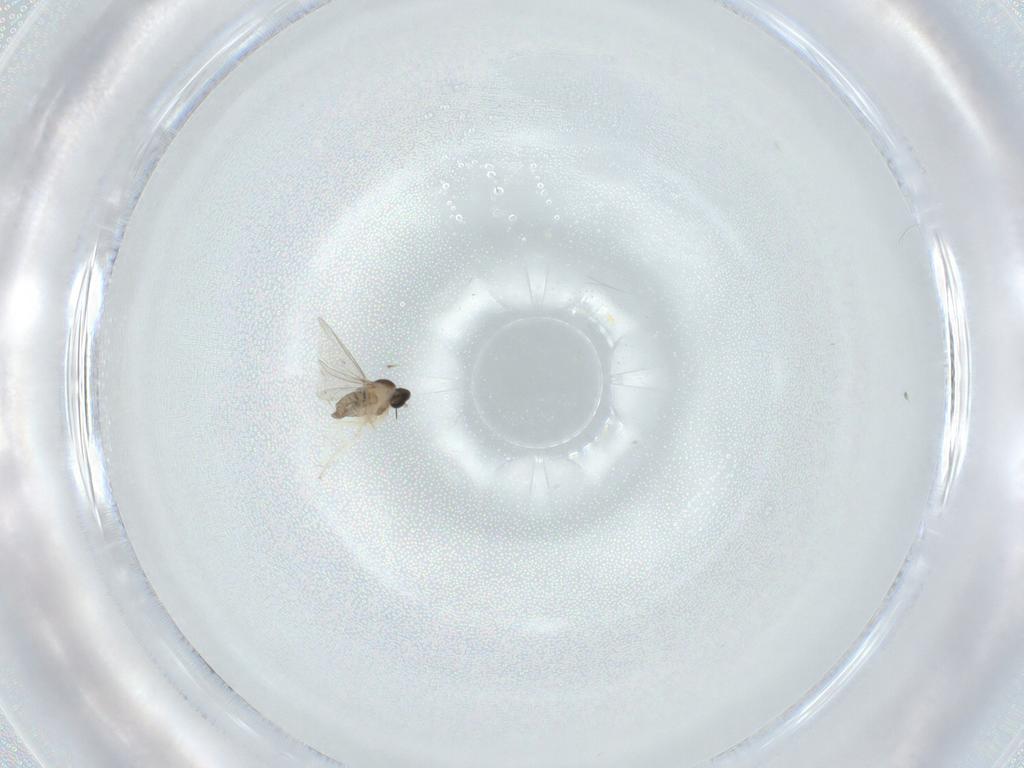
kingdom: Animalia
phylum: Arthropoda
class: Insecta
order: Diptera
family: Cecidomyiidae
